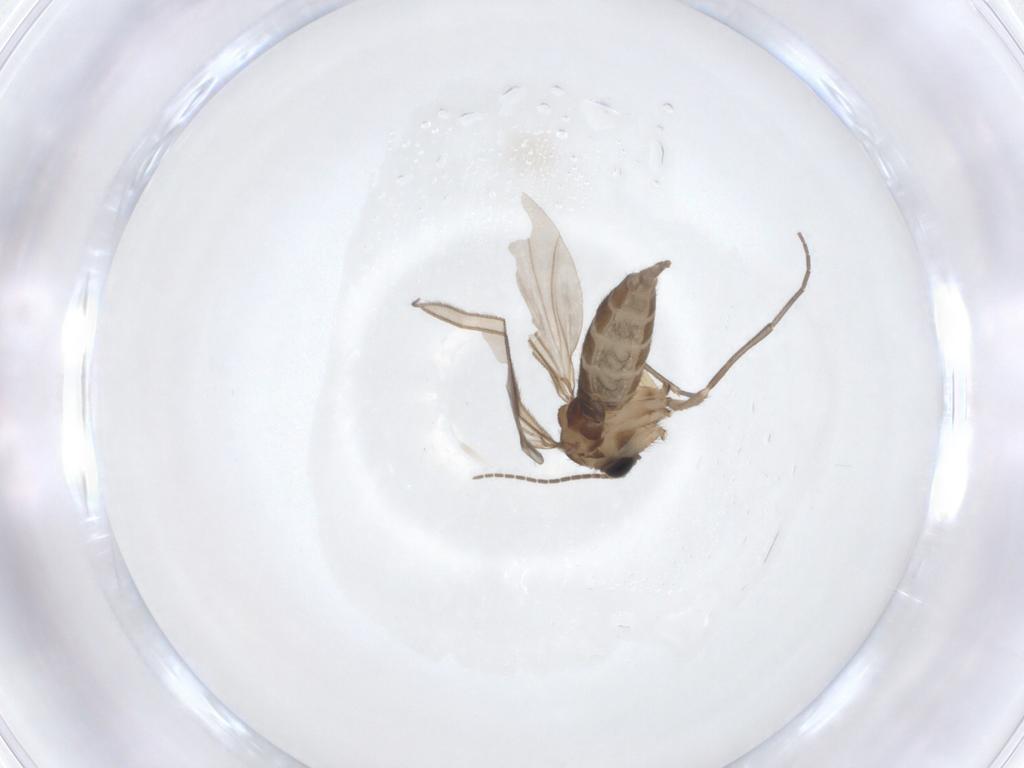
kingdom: Animalia
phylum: Arthropoda
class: Insecta
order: Diptera
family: Sciaridae
